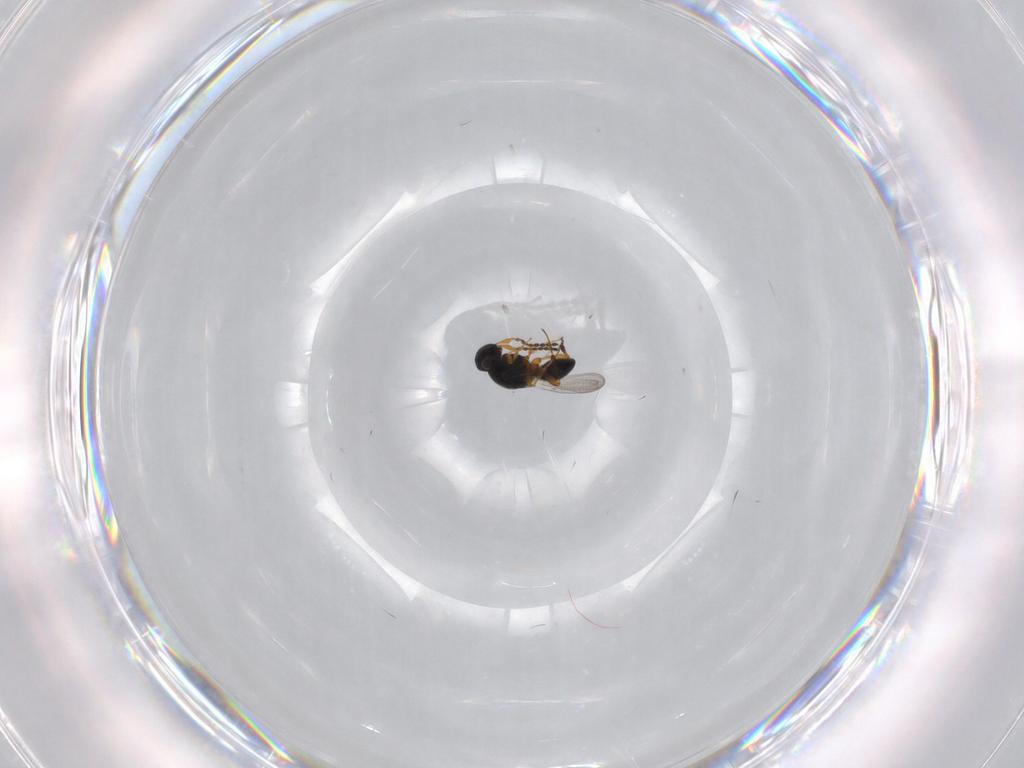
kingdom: Animalia
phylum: Arthropoda
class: Insecta
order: Hymenoptera
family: Platygastridae
